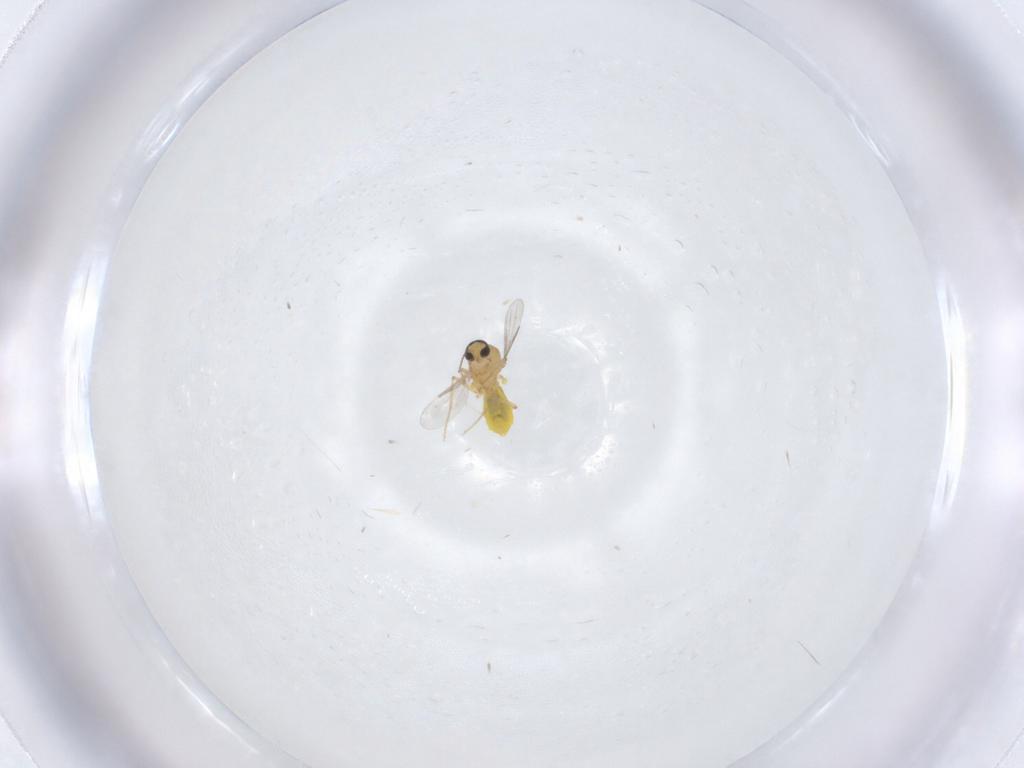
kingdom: Animalia
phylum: Arthropoda
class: Insecta
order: Diptera
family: Ceratopogonidae
